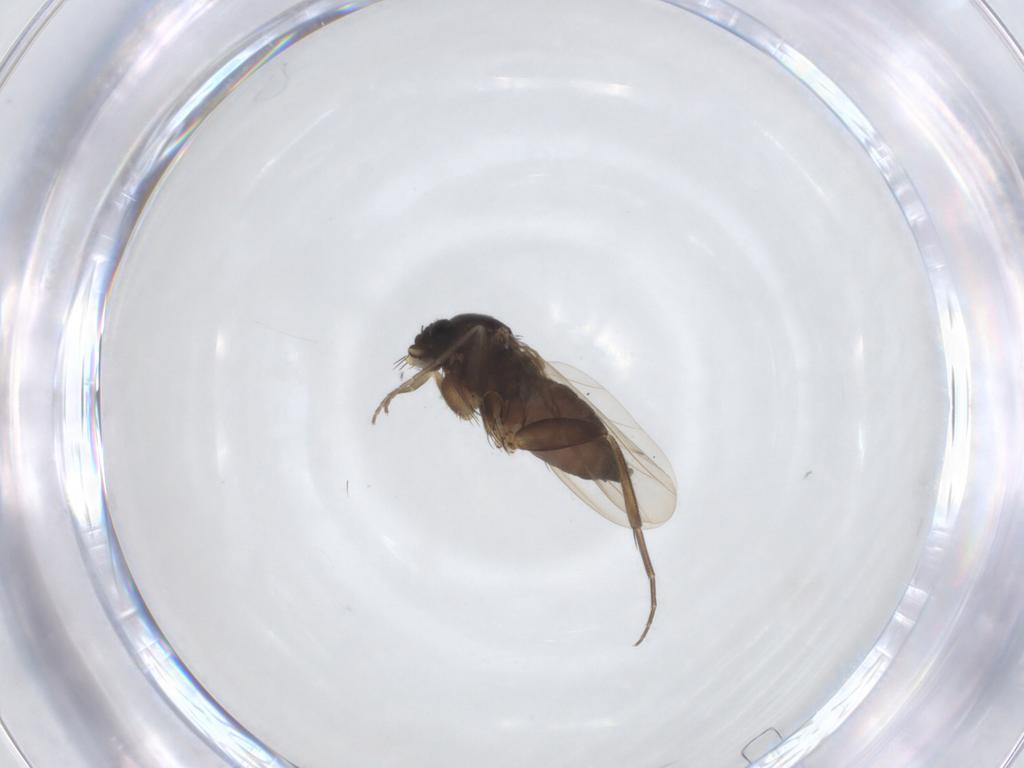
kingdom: Animalia
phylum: Arthropoda
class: Insecta
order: Diptera
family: Phoridae
